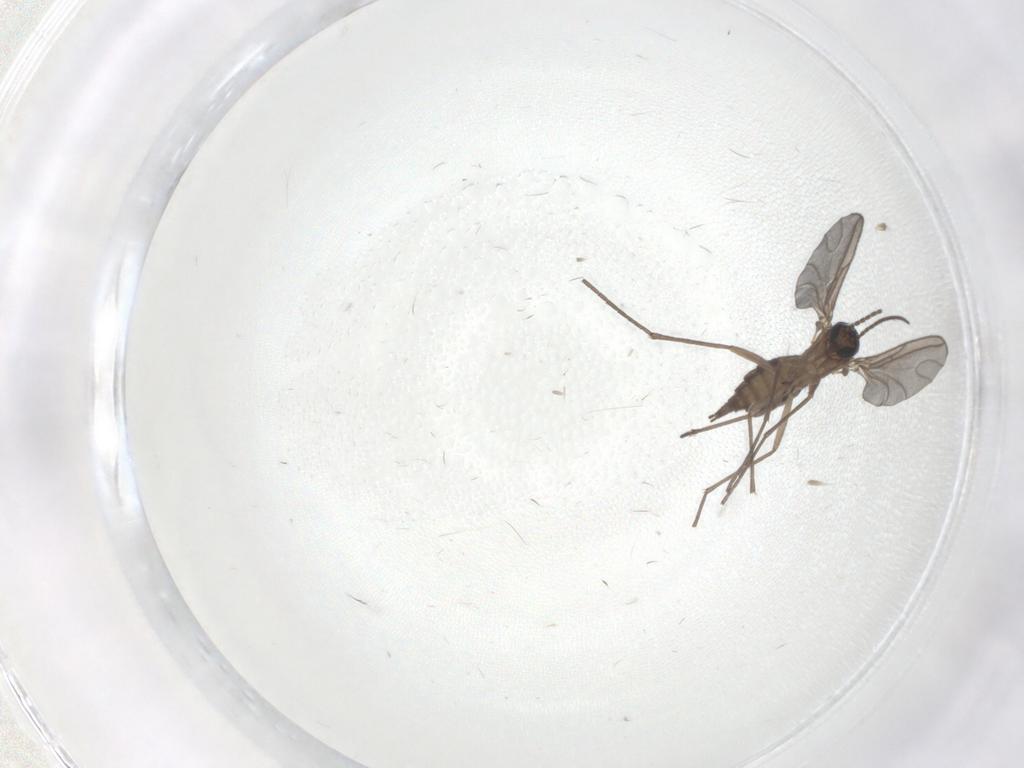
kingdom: Animalia
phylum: Arthropoda
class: Insecta
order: Diptera
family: Sciaridae
